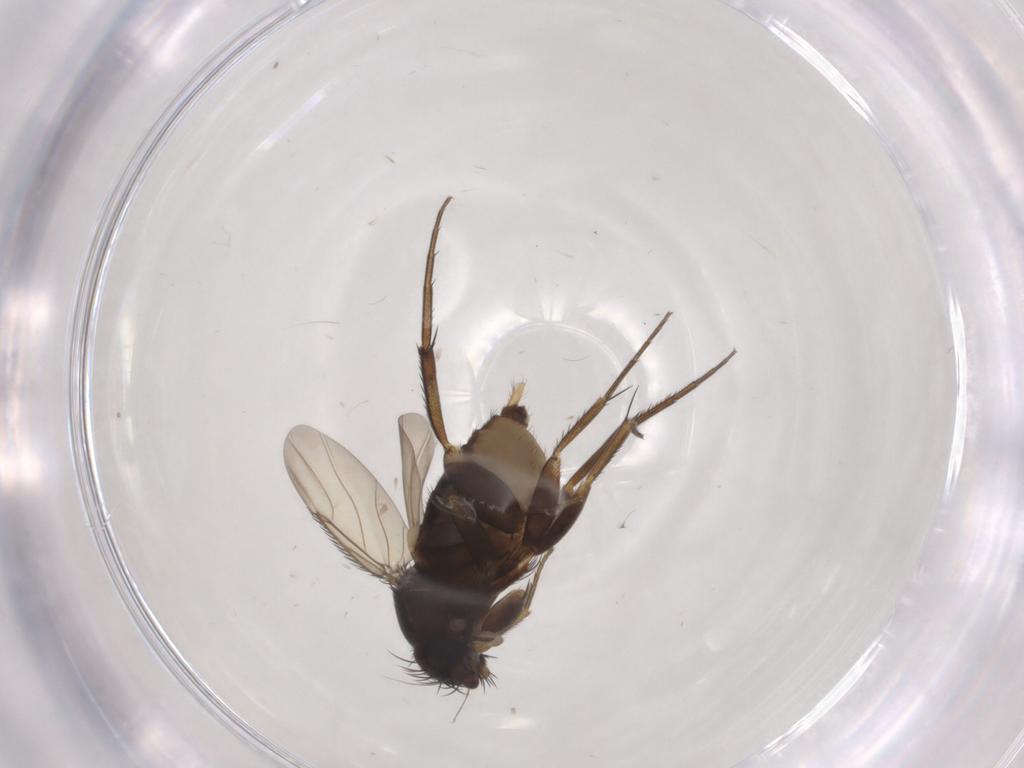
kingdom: Animalia
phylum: Arthropoda
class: Insecta
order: Diptera
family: Phoridae
